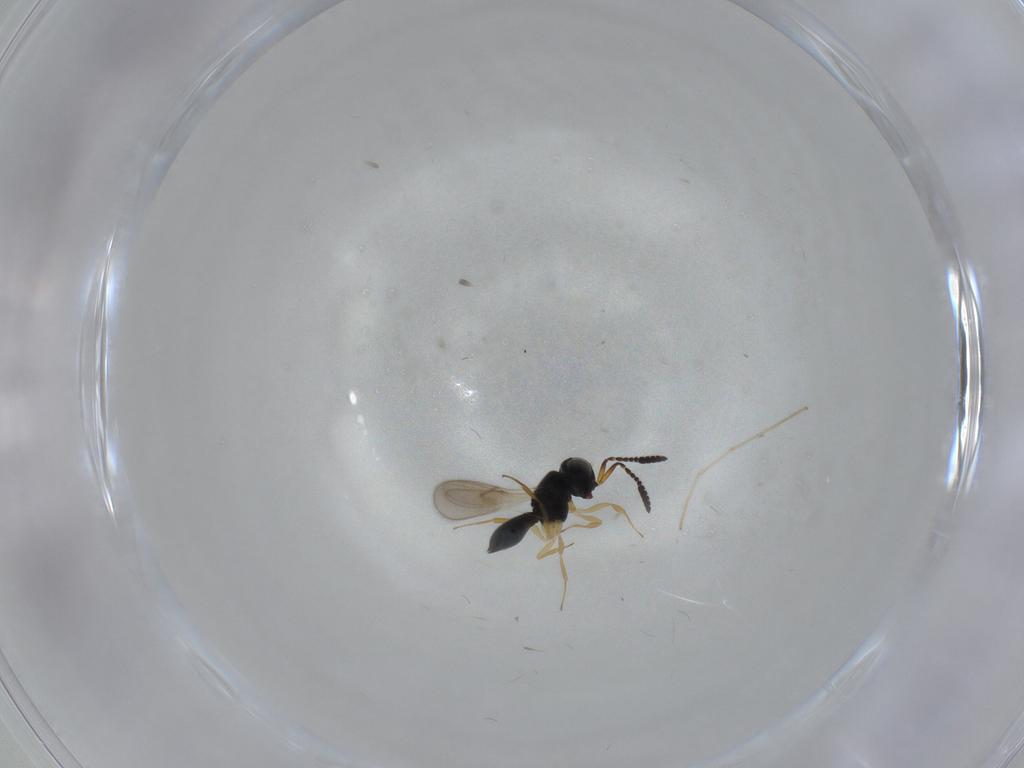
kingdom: Animalia
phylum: Arthropoda
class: Insecta
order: Hymenoptera
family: Scelionidae
